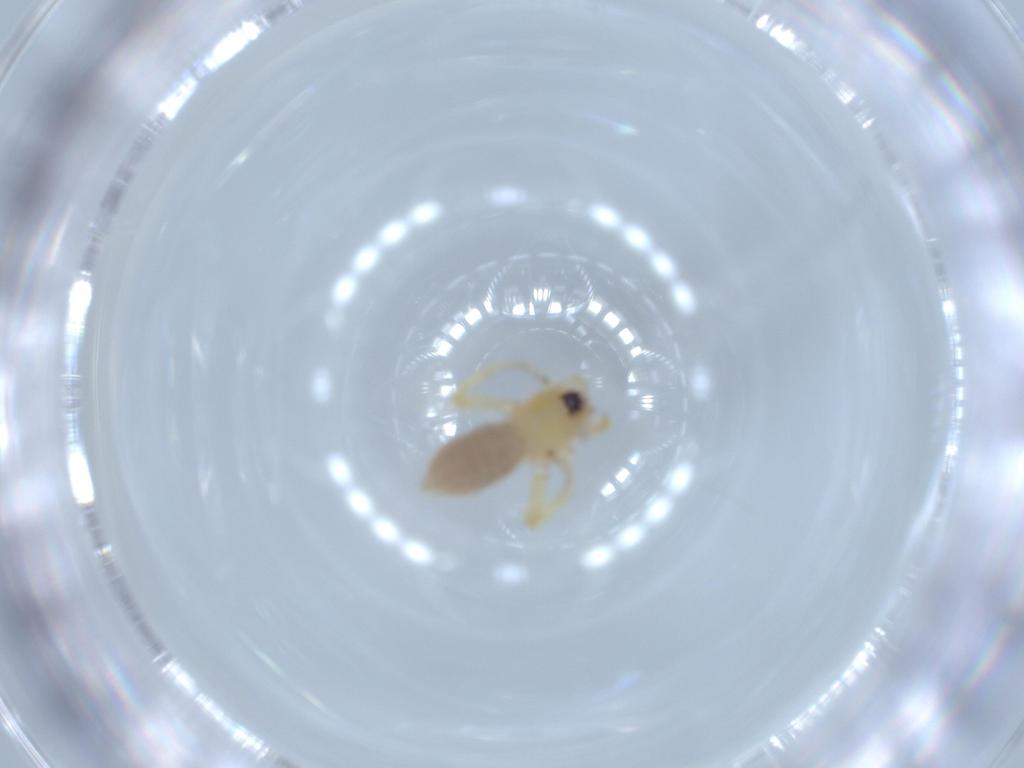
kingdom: Animalia
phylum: Arthropoda
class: Arachnida
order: Araneae
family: Oonopidae
